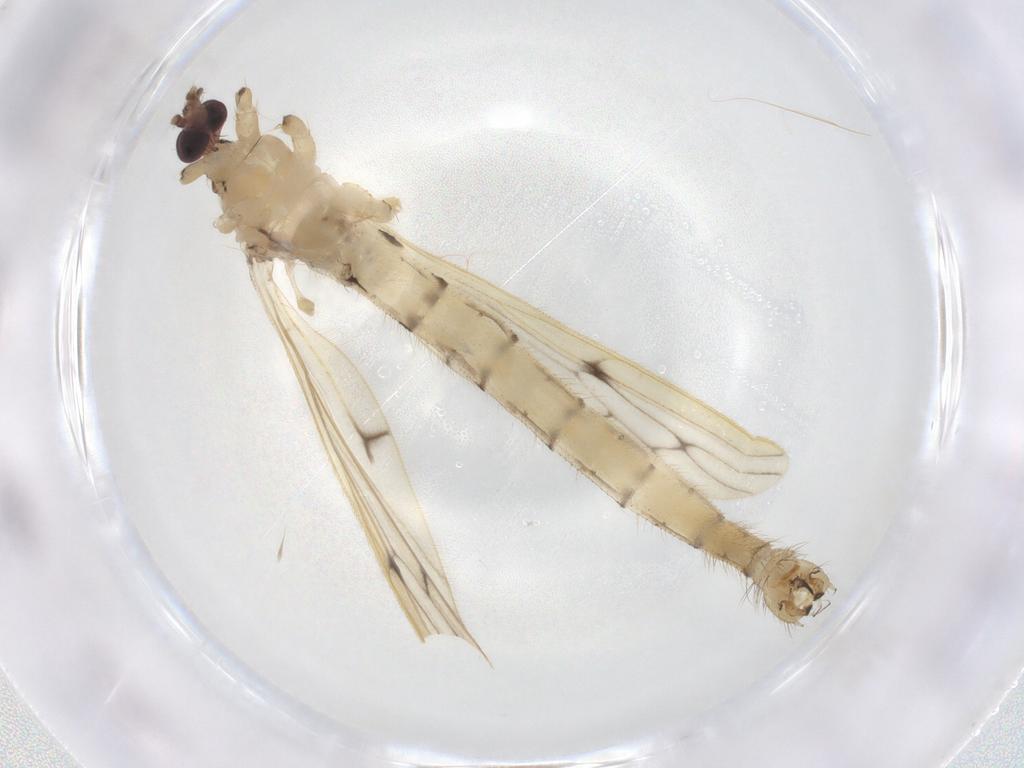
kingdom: Animalia
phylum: Arthropoda
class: Insecta
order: Diptera
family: Limoniidae
